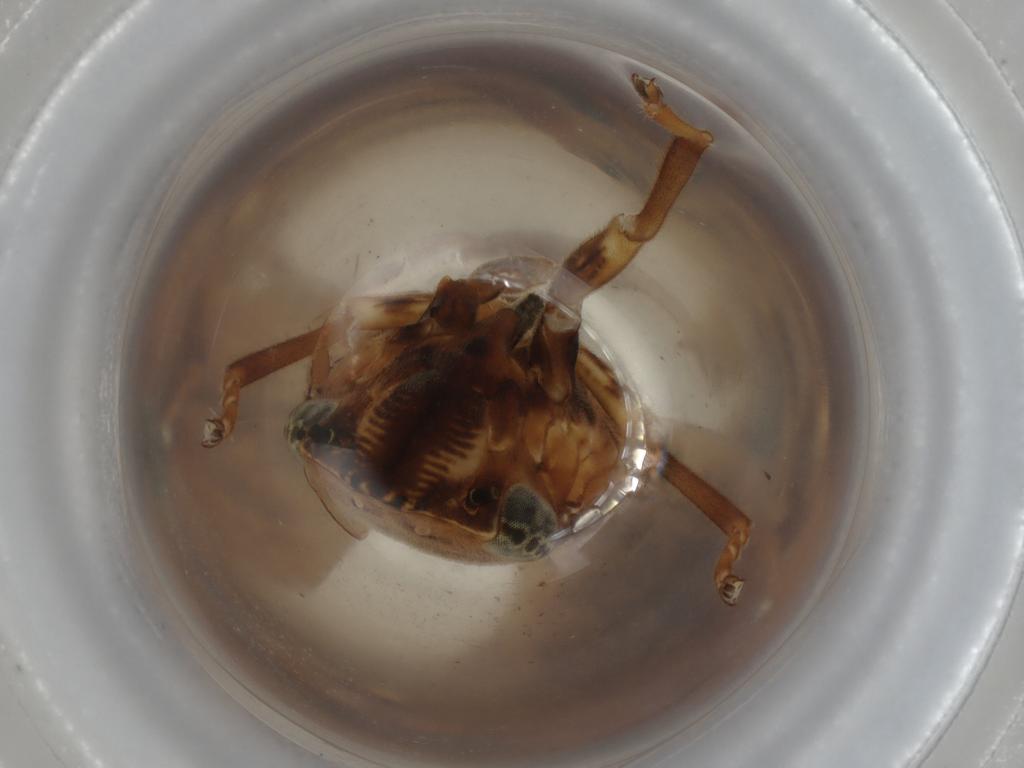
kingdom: Animalia
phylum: Arthropoda
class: Insecta
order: Hemiptera
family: Aphrophoridae
